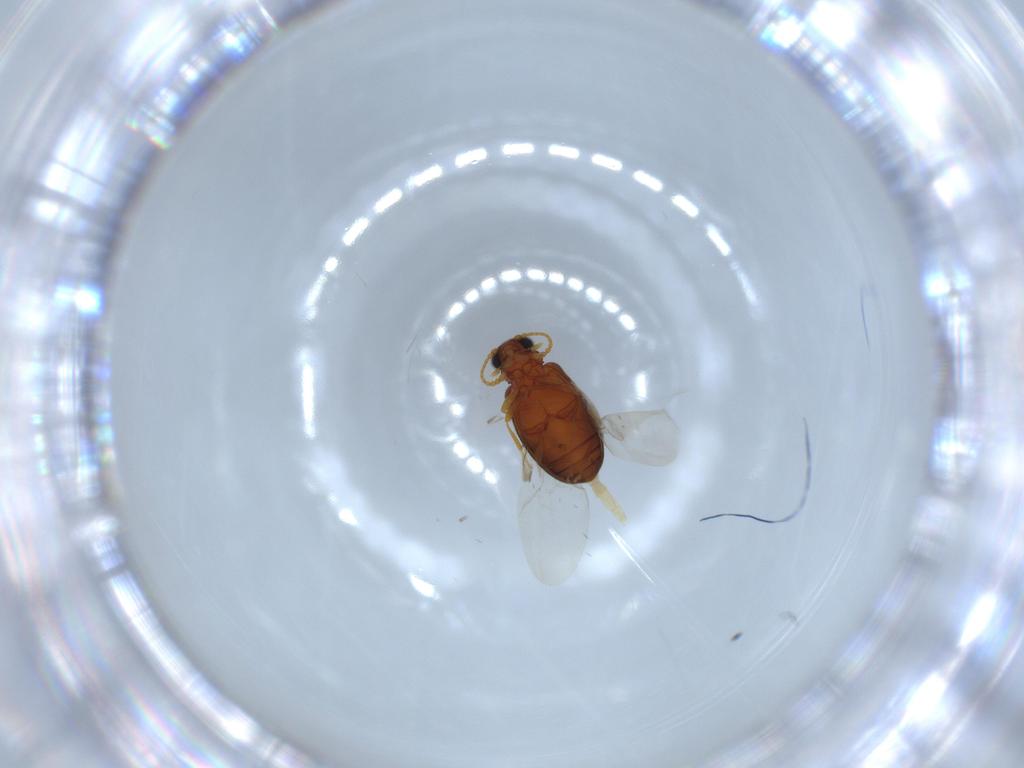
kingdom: Animalia
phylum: Arthropoda
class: Insecta
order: Coleoptera
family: Aderidae
